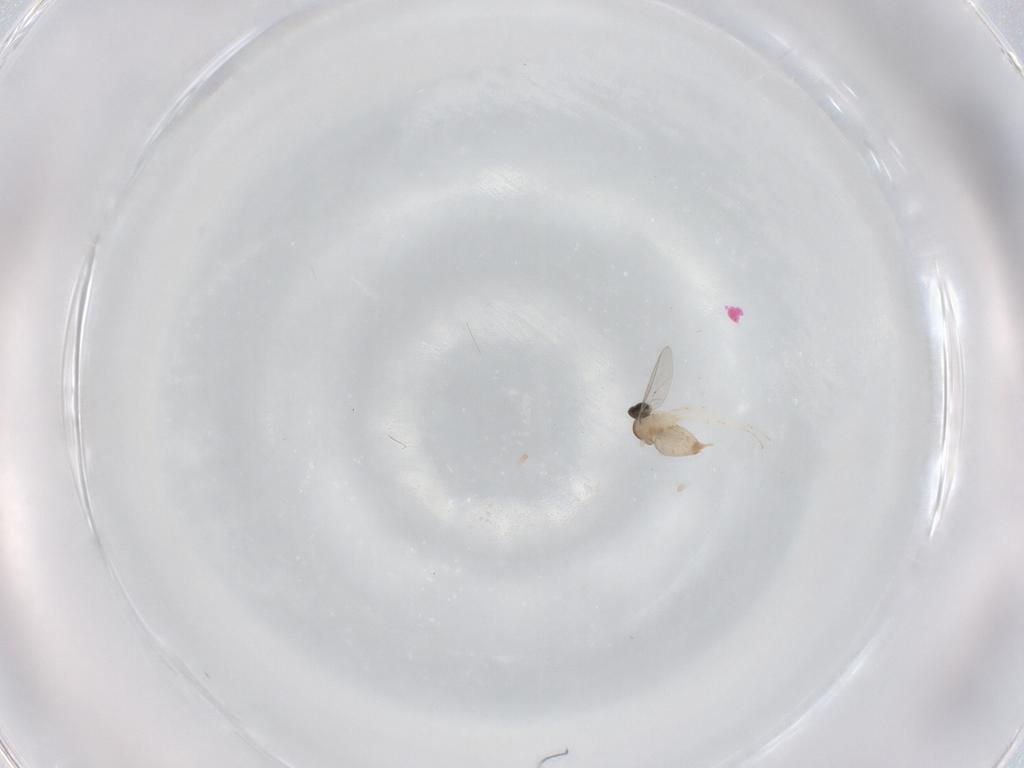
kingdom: Animalia
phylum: Arthropoda
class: Insecta
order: Diptera
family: Cecidomyiidae
